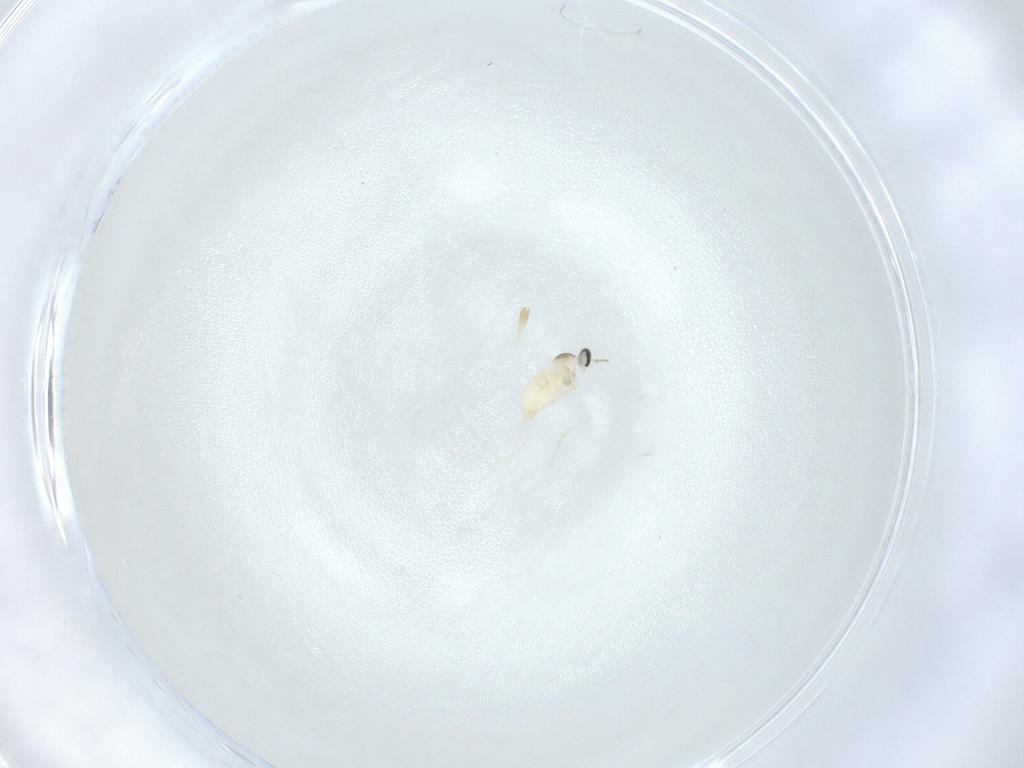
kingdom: Animalia
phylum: Arthropoda
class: Insecta
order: Diptera
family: Cecidomyiidae
